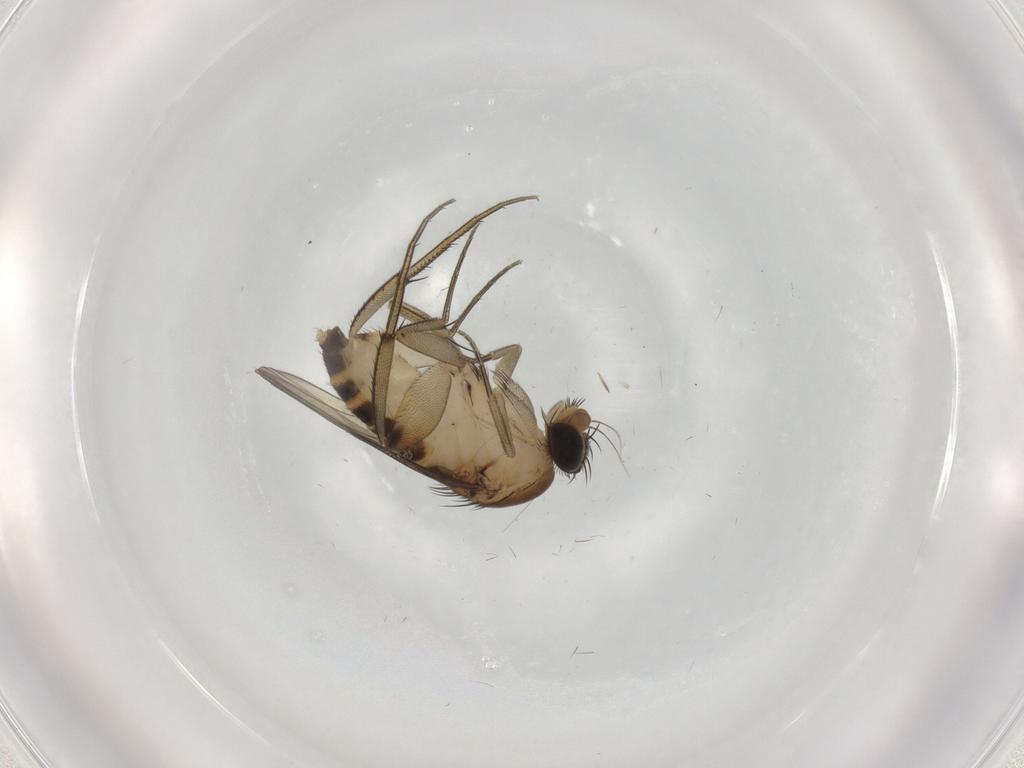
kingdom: Animalia
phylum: Arthropoda
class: Insecta
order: Diptera
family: Phoridae
